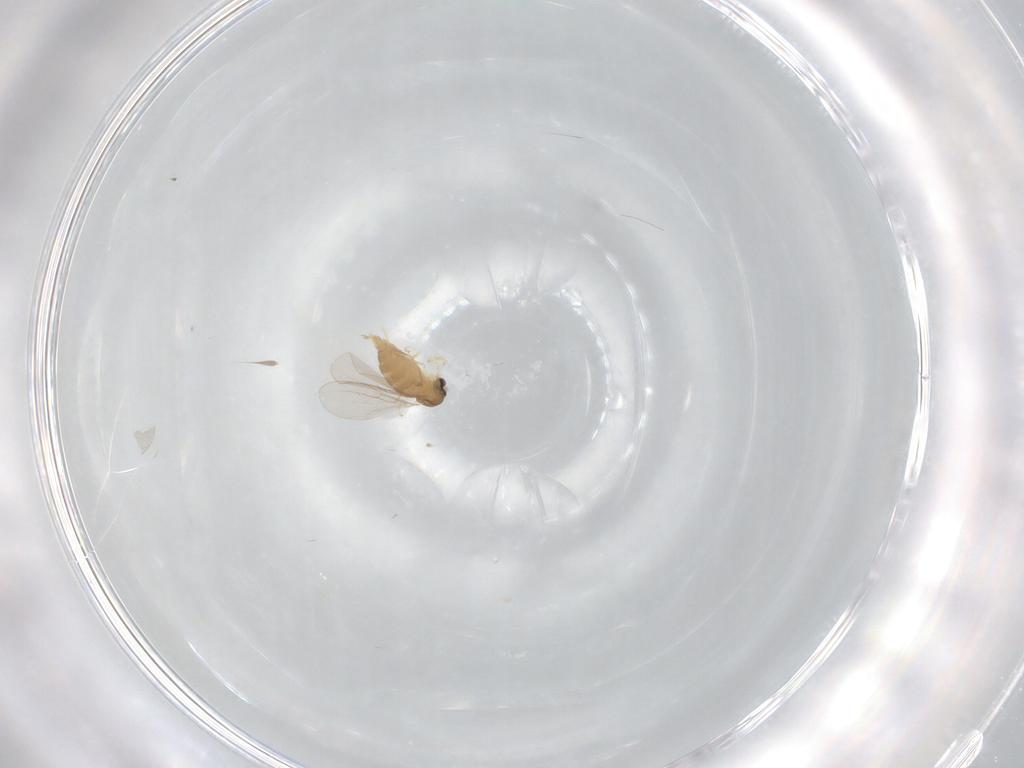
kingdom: Animalia
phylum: Arthropoda
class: Insecta
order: Diptera
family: Cecidomyiidae
